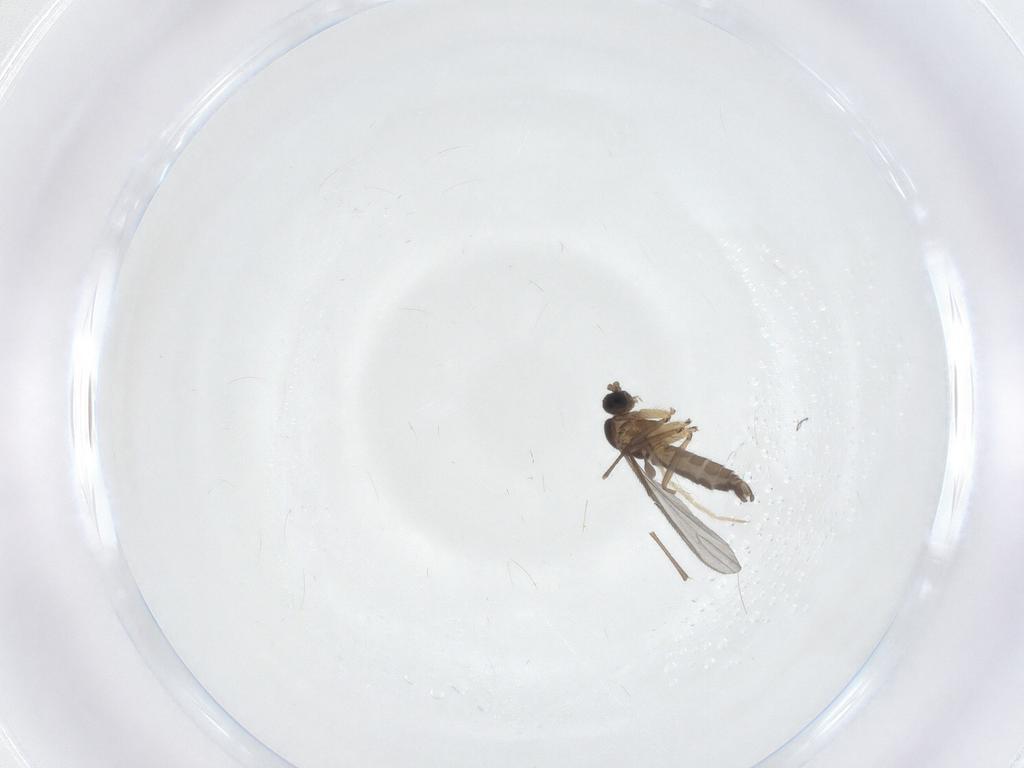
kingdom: Animalia
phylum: Arthropoda
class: Insecta
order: Diptera
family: Sciaridae
